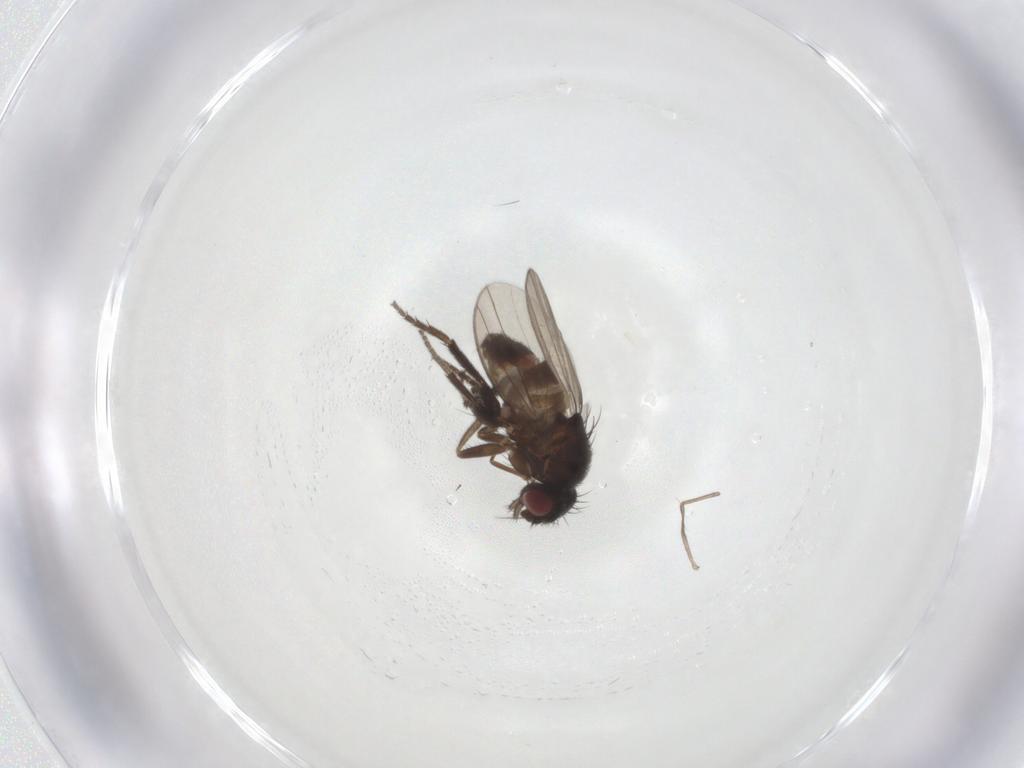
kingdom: Animalia
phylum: Arthropoda
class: Insecta
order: Diptera
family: Milichiidae
